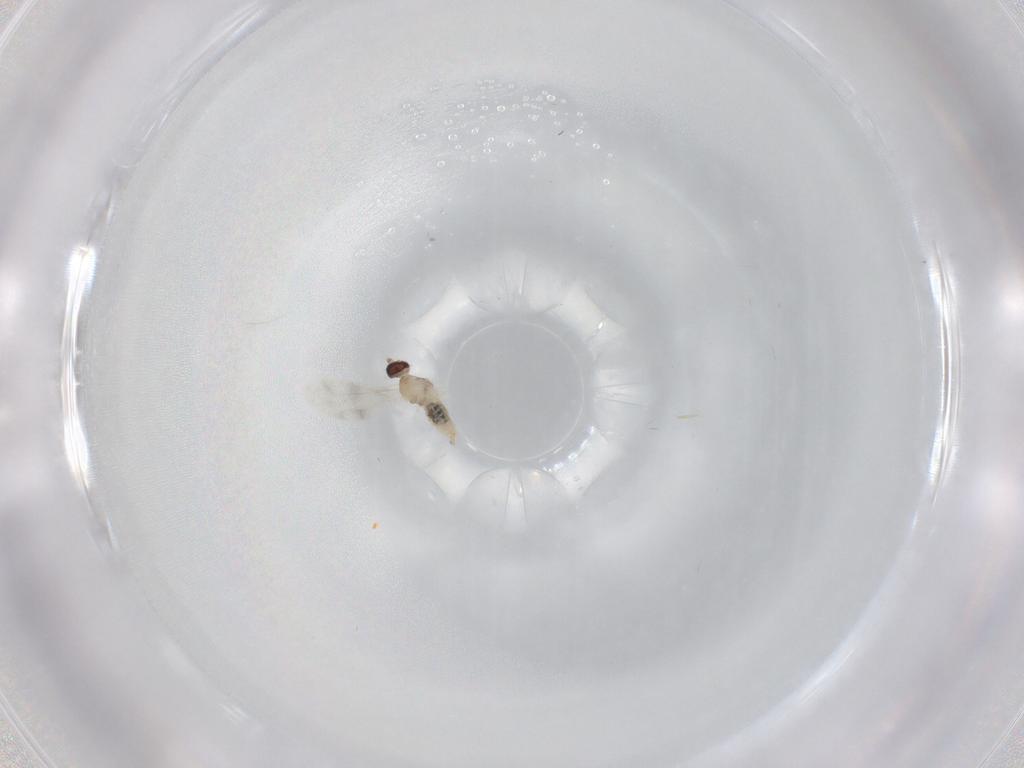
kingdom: Animalia
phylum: Arthropoda
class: Insecta
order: Diptera
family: Cecidomyiidae
